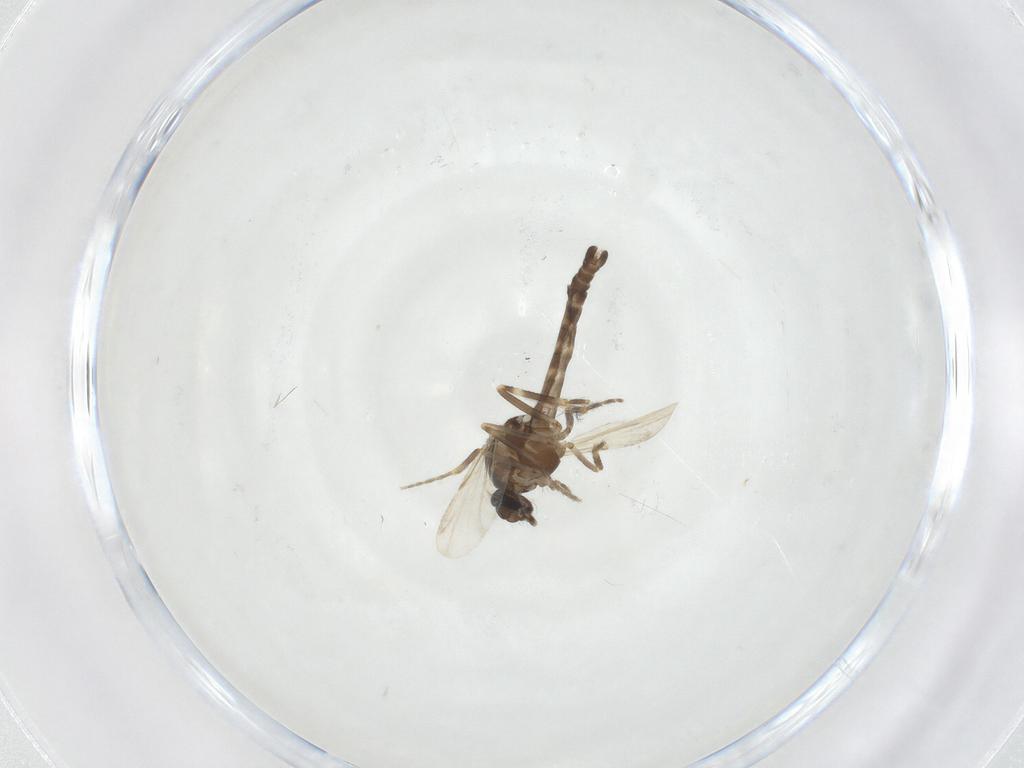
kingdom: Animalia
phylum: Arthropoda
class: Insecta
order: Diptera
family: Ceratopogonidae
